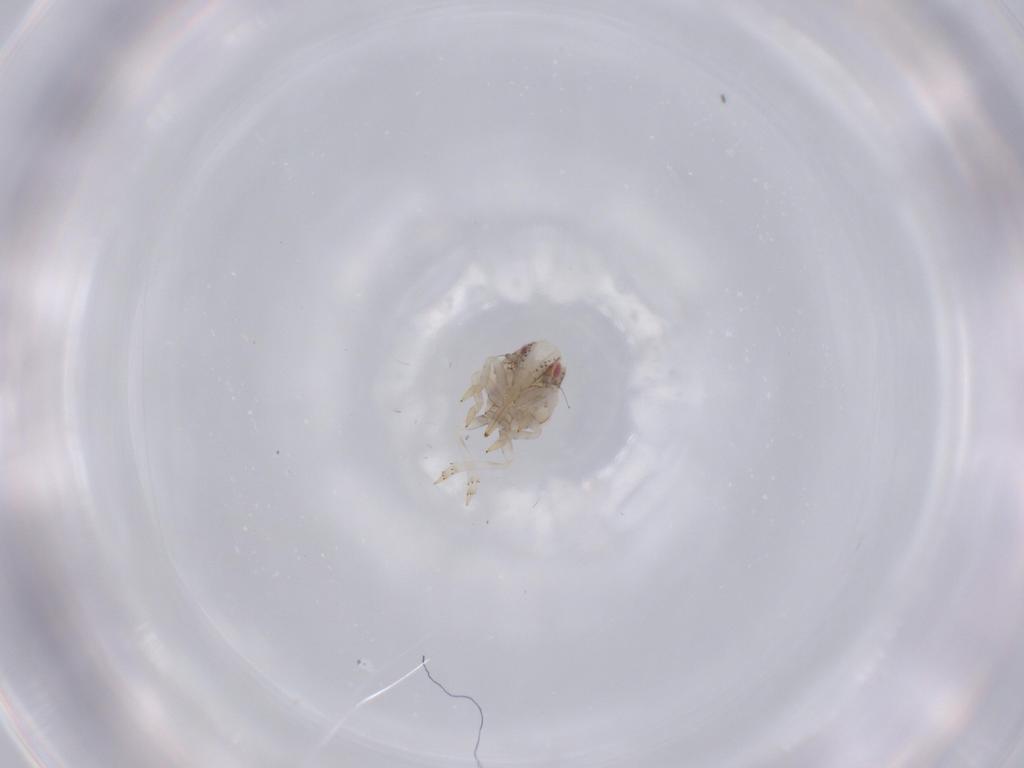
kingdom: Animalia
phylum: Arthropoda
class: Insecta
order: Hemiptera
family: Acanaloniidae
